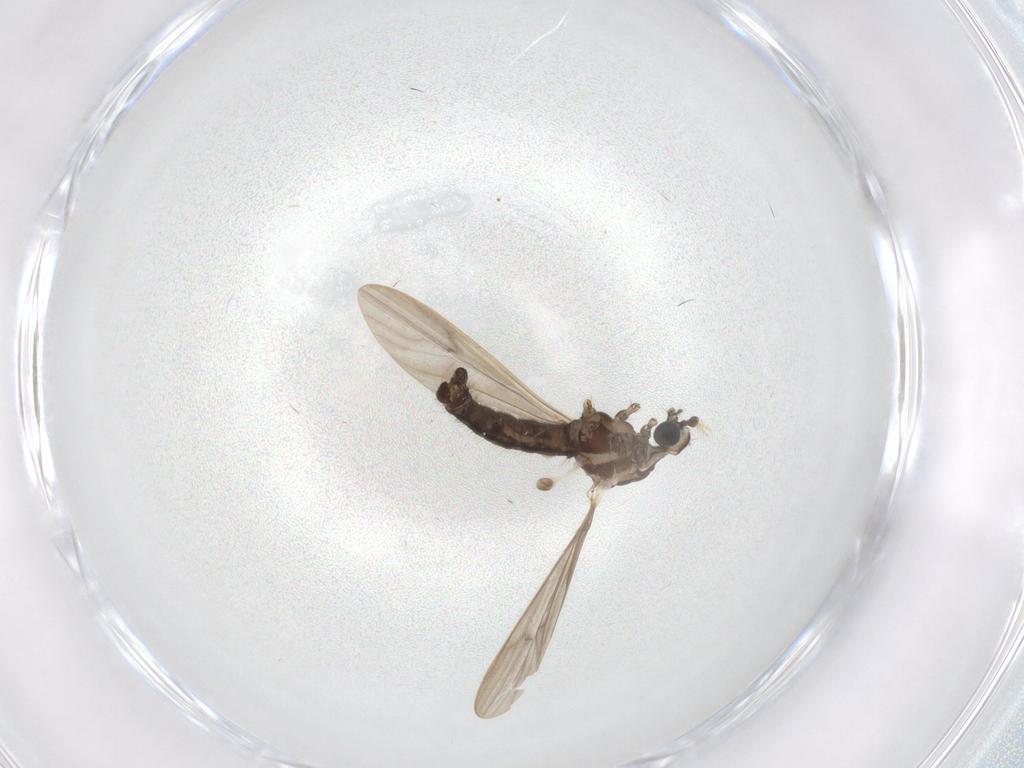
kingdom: Animalia
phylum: Arthropoda
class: Insecta
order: Diptera
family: Limoniidae
